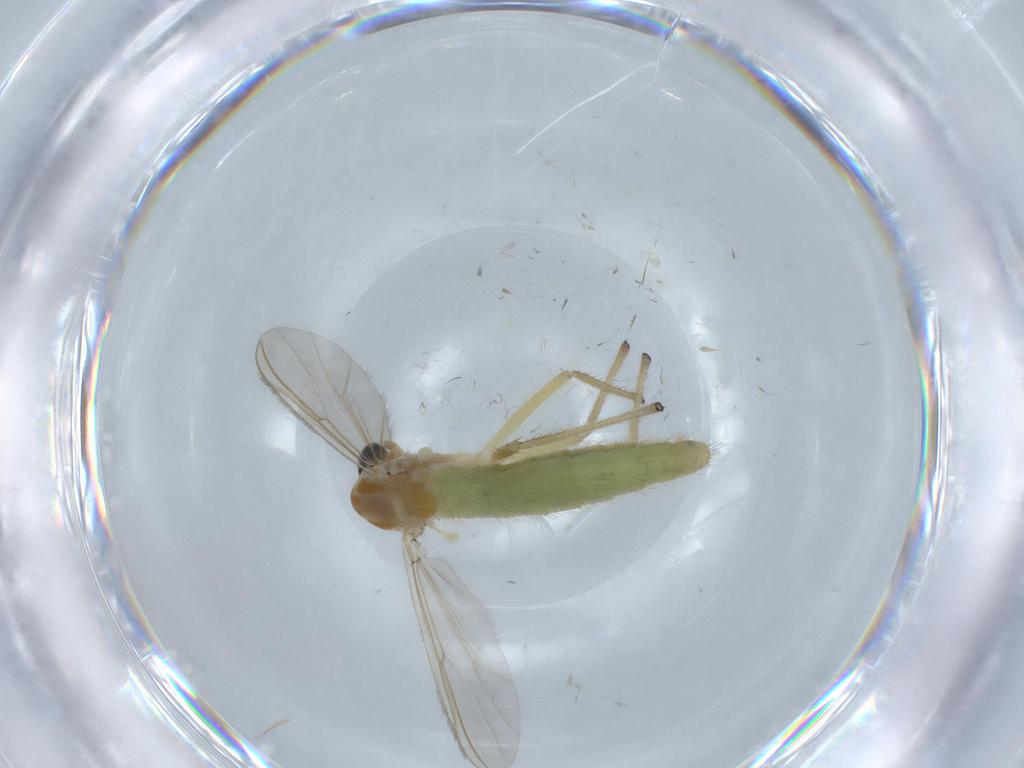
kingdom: Animalia
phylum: Arthropoda
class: Insecta
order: Diptera
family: Chironomidae
